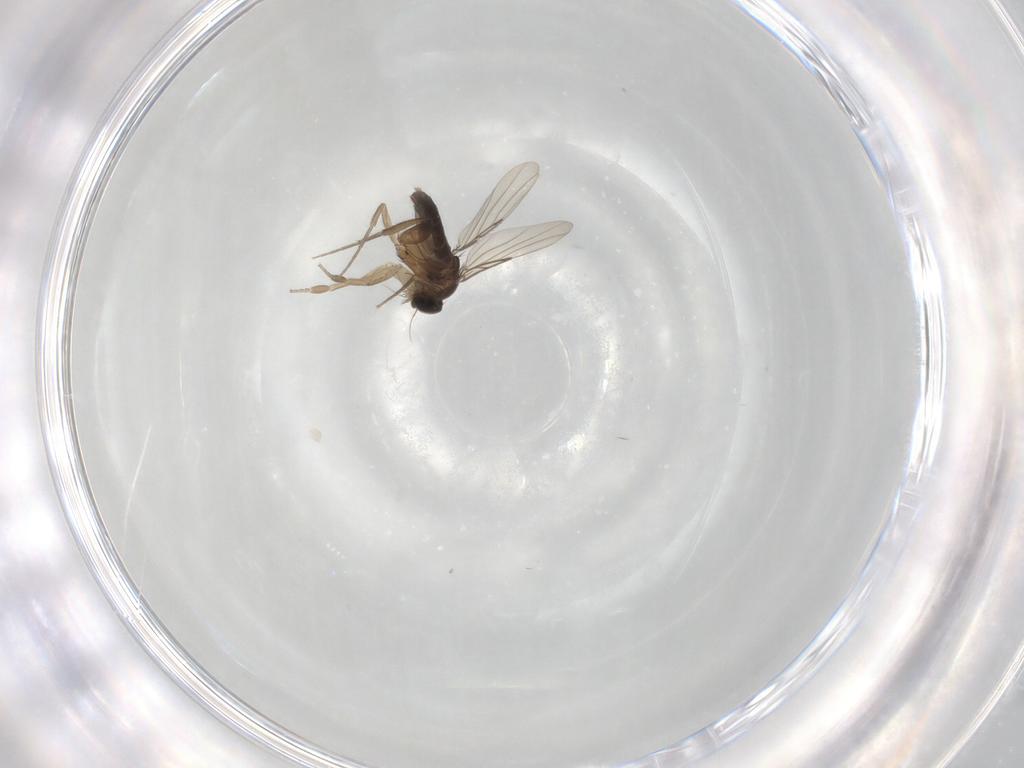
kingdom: Animalia
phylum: Arthropoda
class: Insecta
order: Diptera
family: Phoridae
